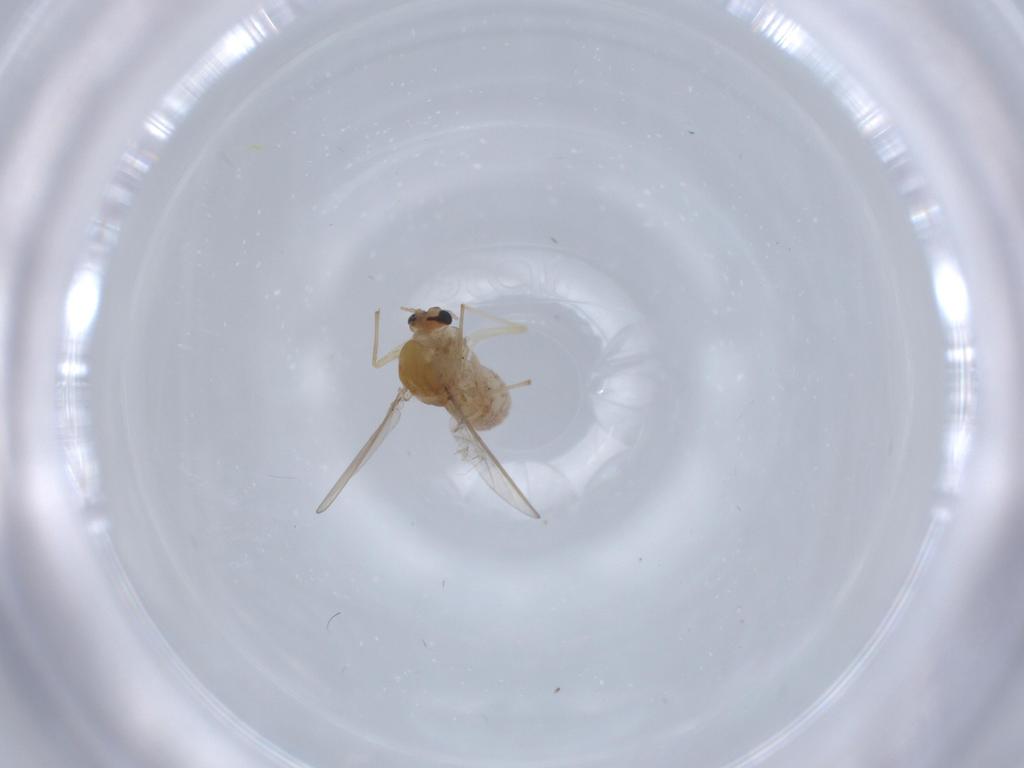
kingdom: Animalia
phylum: Arthropoda
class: Insecta
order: Diptera
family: Chironomidae
